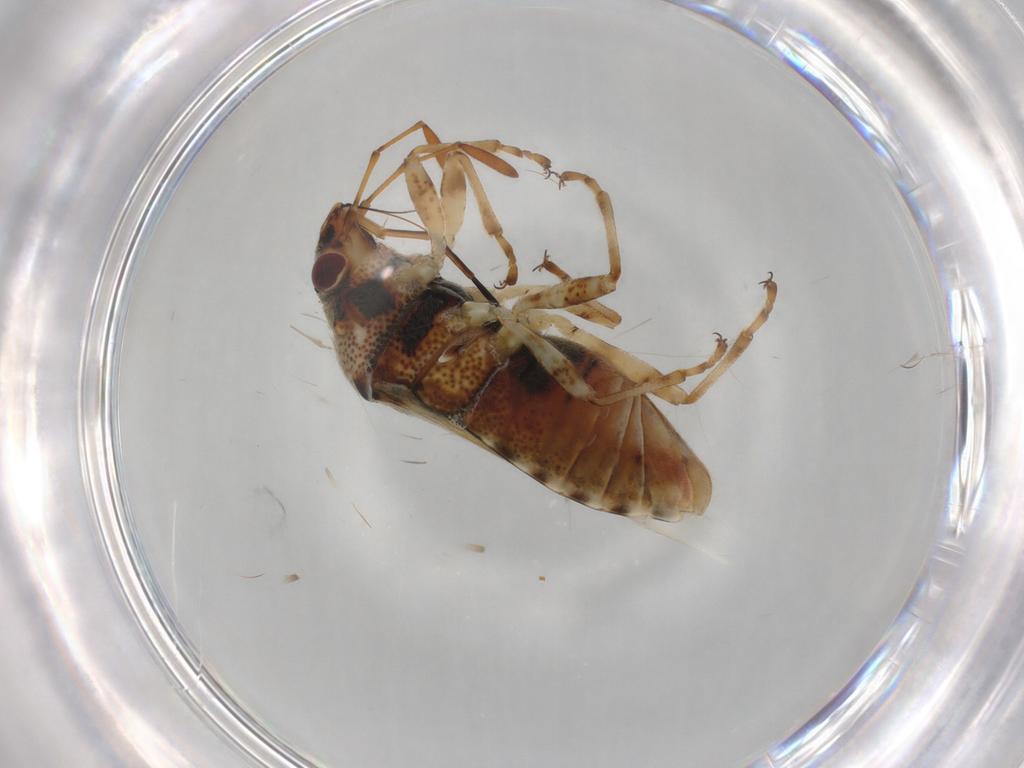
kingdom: Animalia
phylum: Arthropoda
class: Insecta
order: Hemiptera
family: Lygaeidae
